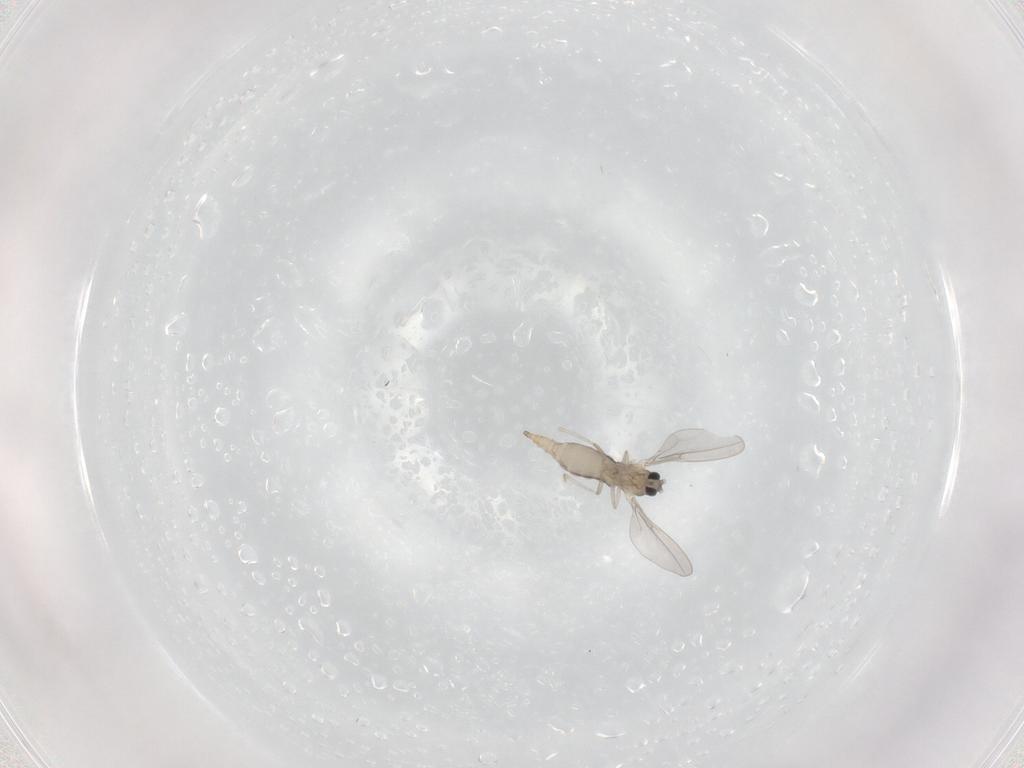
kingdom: Animalia
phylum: Arthropoda
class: Insecta
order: Diptera
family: Cecidomyiidae
